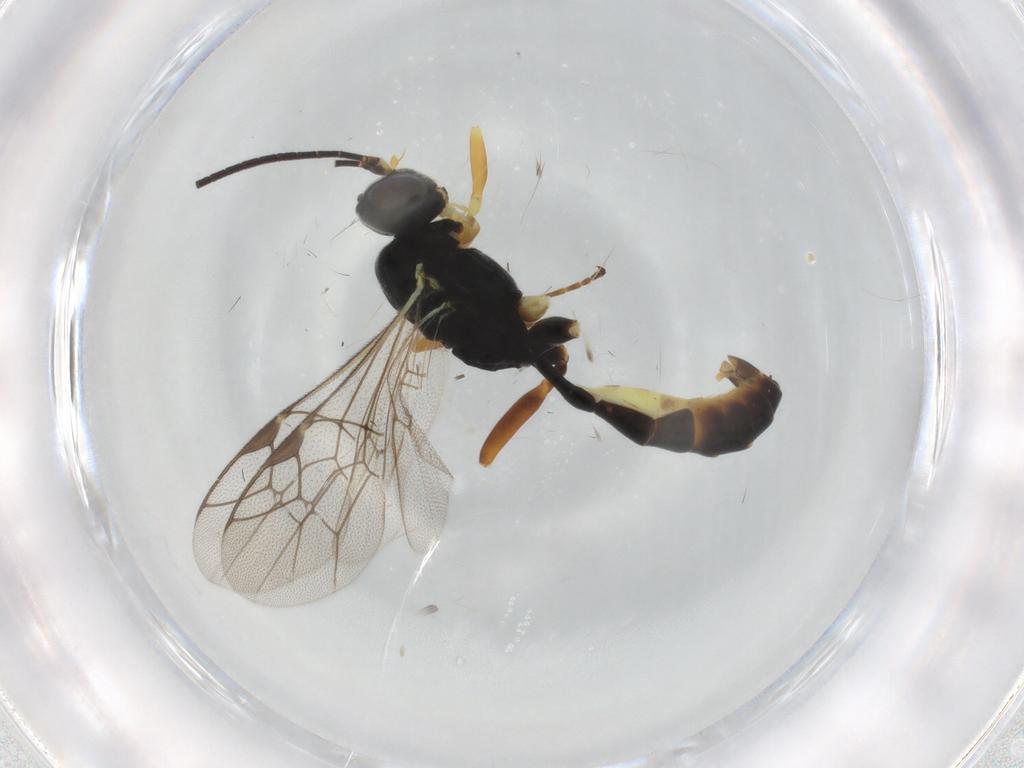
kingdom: Animalia
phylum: Arthropoda
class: Insecta
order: Hymenoptera
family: Ichneumonidae
